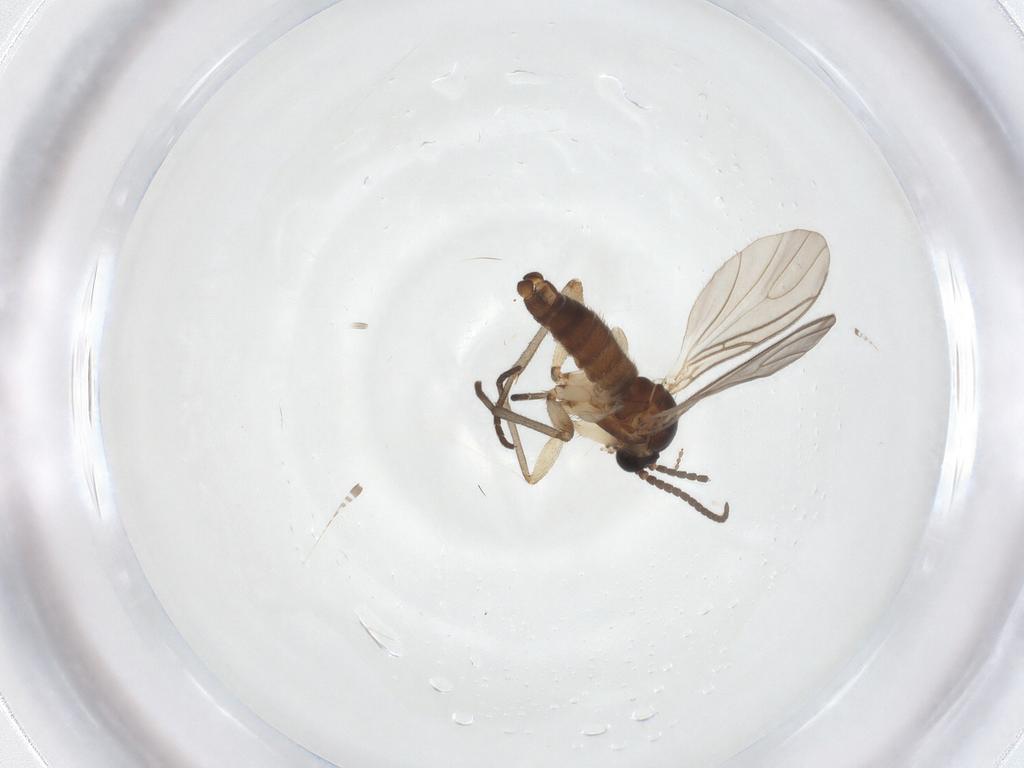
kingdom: Animalia
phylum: Arthropoda
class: Insecta
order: Diptera
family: Sciaridae
